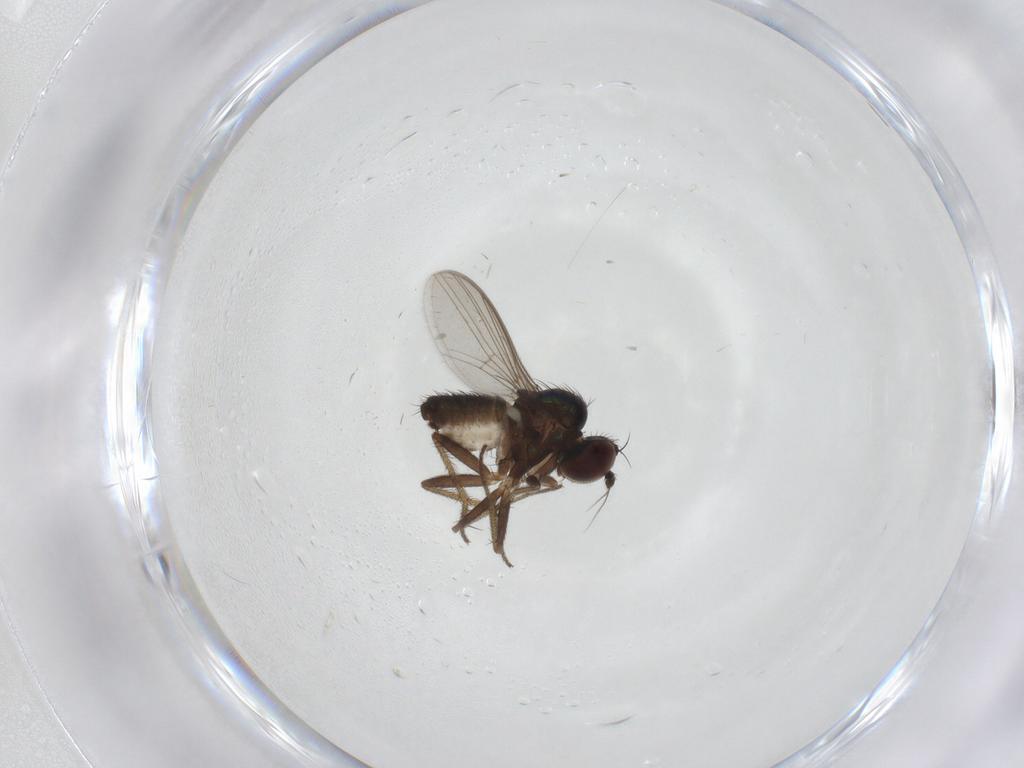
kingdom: Animalia
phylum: Arthropoda
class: Insecta
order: Diptera
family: Dolichopodidae
